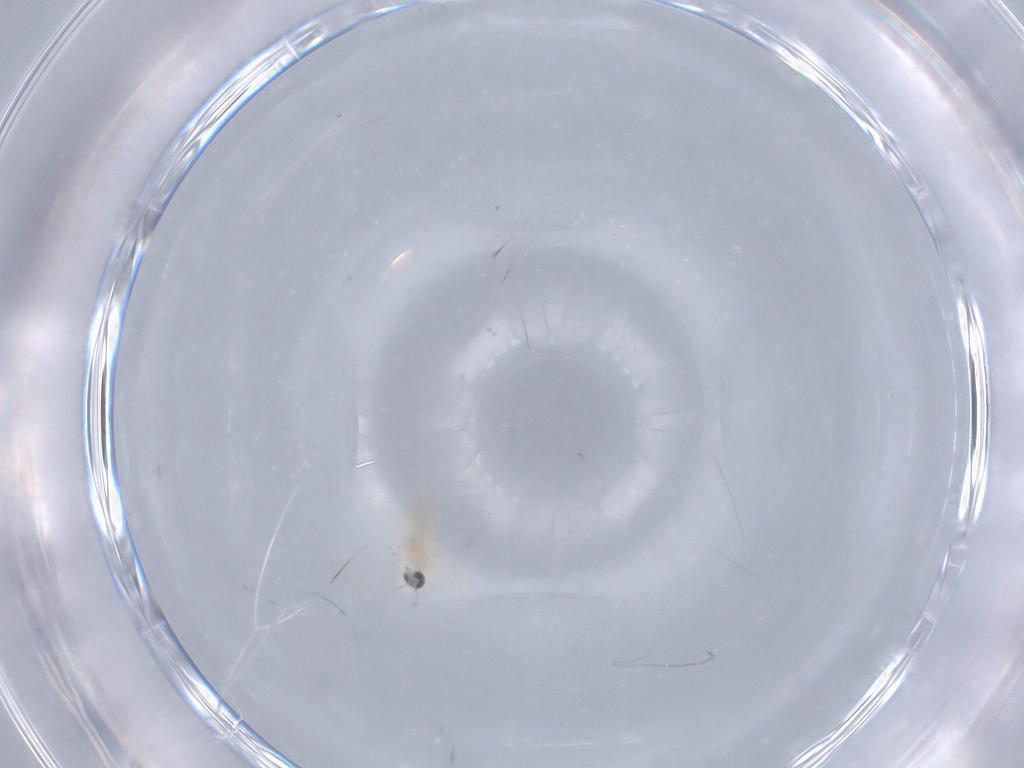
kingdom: Animalia
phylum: Arthropoda
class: Insecta
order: Diptera
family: Cecidomyiidae
